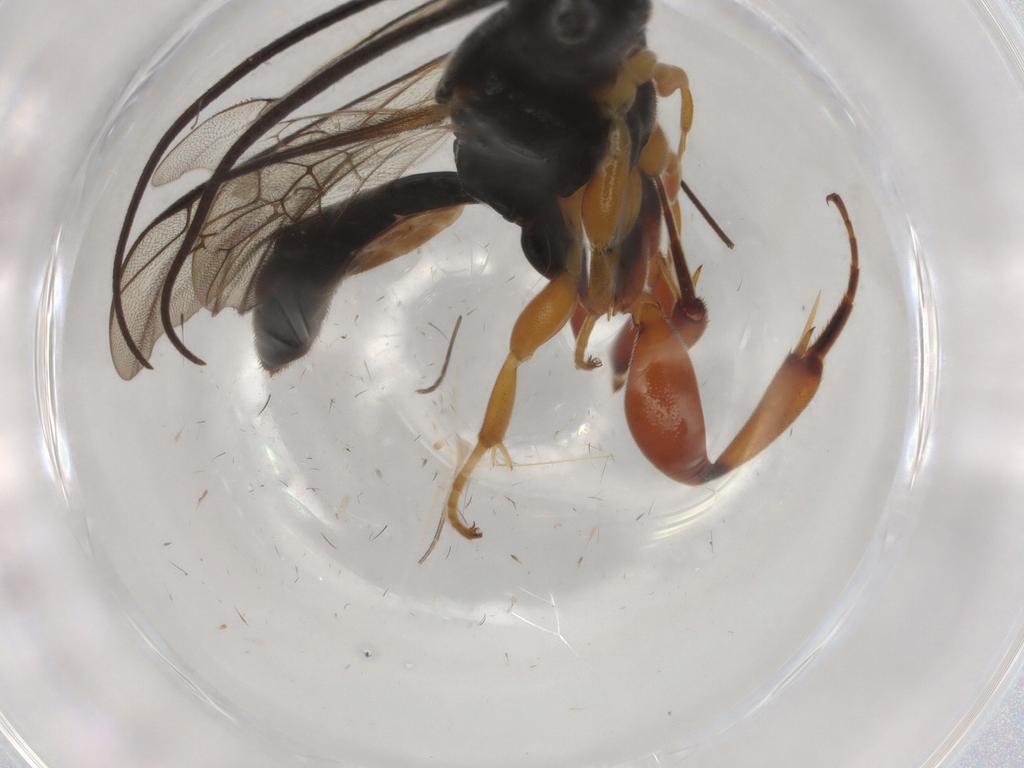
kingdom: Animalia
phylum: Arthropoda
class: Insecta
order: Hymenoptera
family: Ichneumonidae
